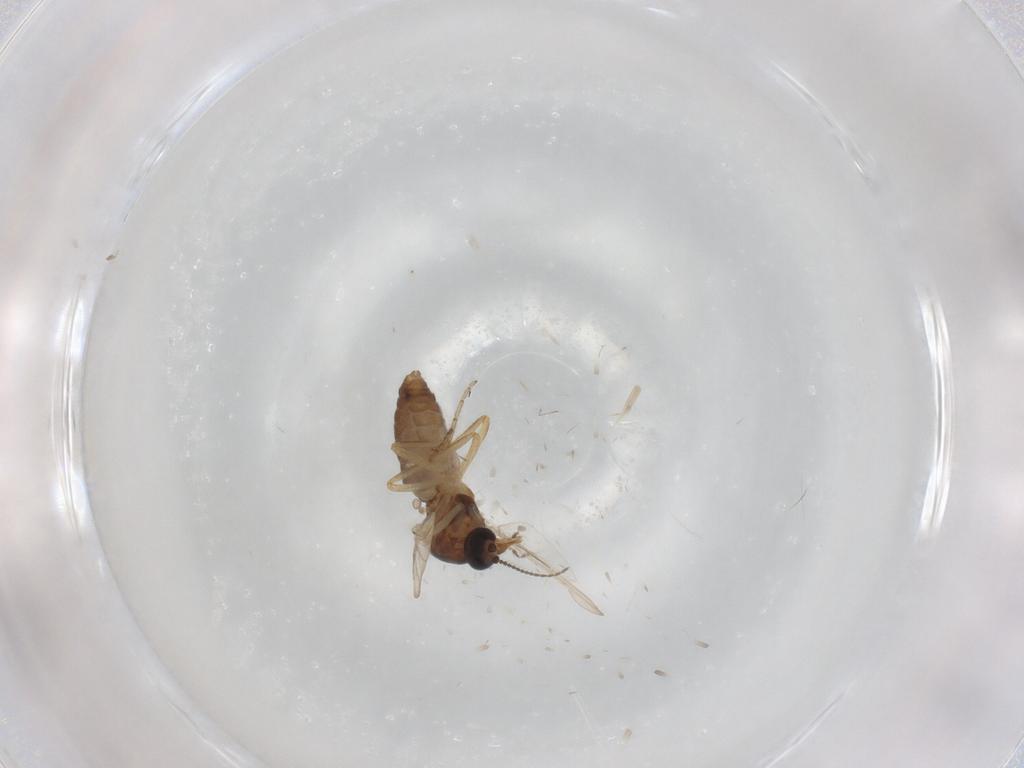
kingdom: Animalia
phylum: Arthropoda
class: Insecta
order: Diptera
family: Ceratopogonidae
